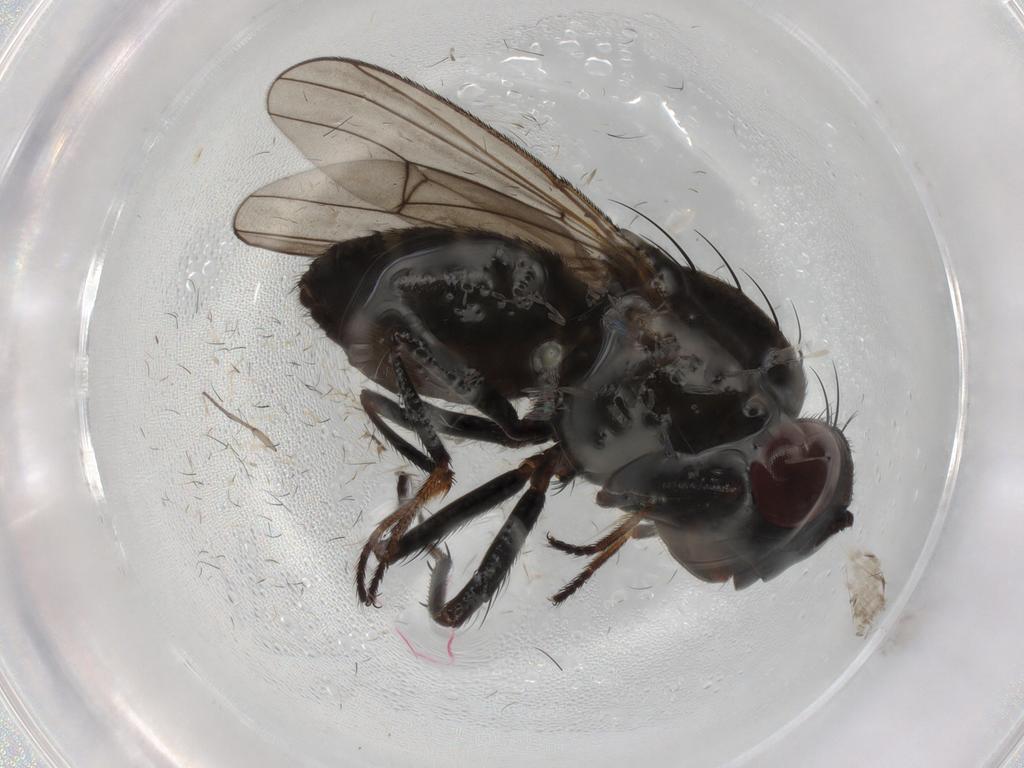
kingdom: Animalia
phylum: Arthropoda
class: Insecta
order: Diptera
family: Sciaridae
